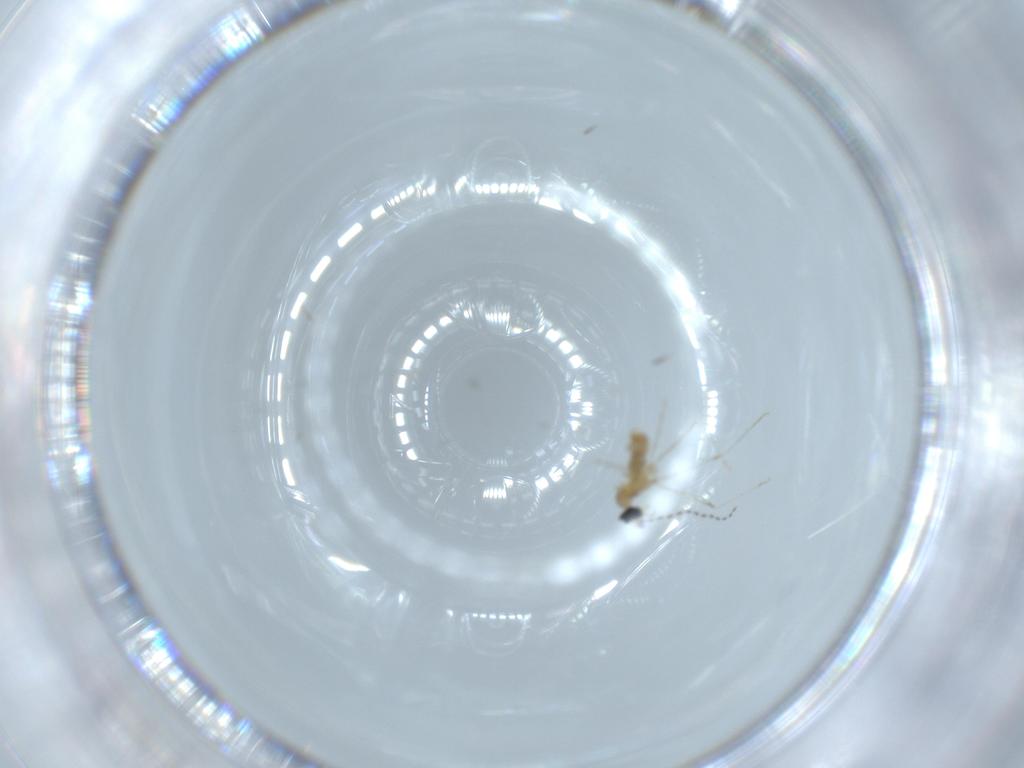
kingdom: Animalia
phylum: Arthropoda
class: Insecta
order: Diptera
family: Cecidomyiidae
